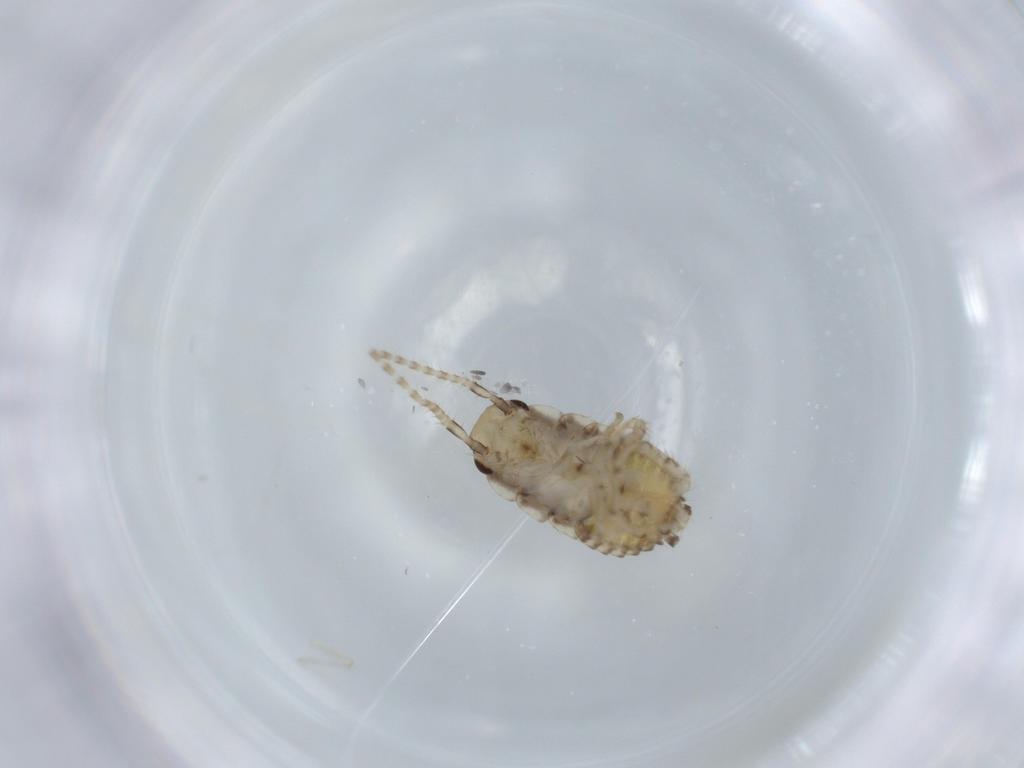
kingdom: Animalia
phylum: Arthropoda
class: Insecta
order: Blattodea
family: Ectobiidae
